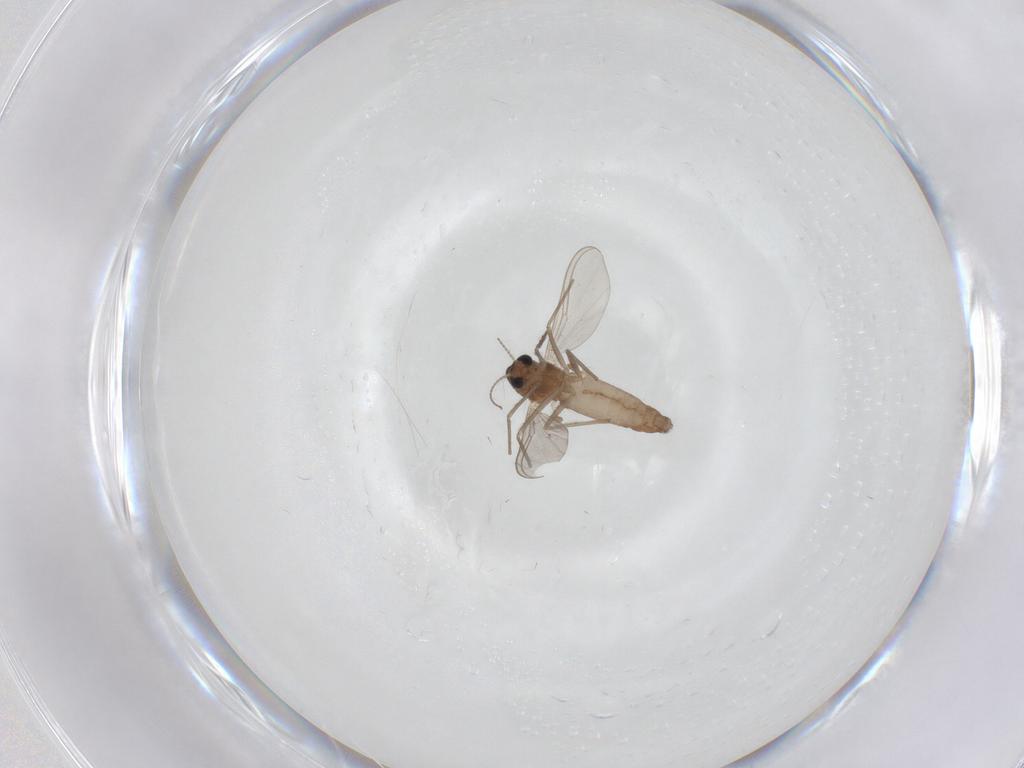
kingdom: Animalia
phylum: Arthropoda
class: Insecta
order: Diptera
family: Chironomidae
